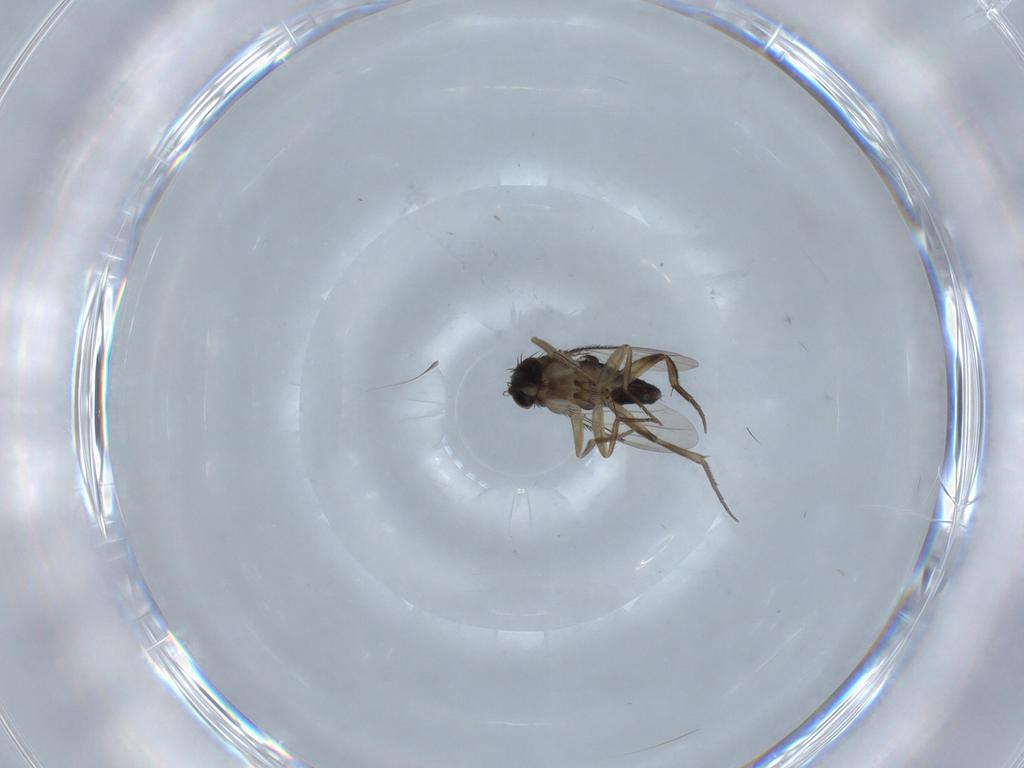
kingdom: Animalia
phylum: Arthropoda
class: Insecta
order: Diptera
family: Phoridae
